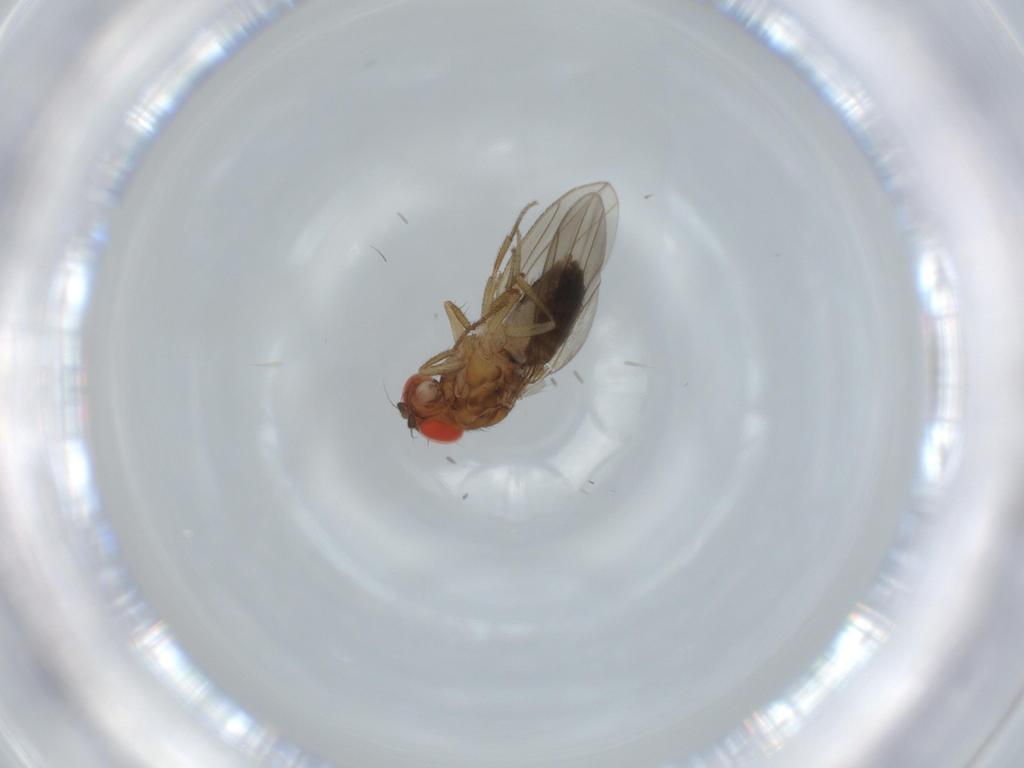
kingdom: Animalia
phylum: Arthropoda
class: Insecta
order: Diptera
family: Drosophilidae
